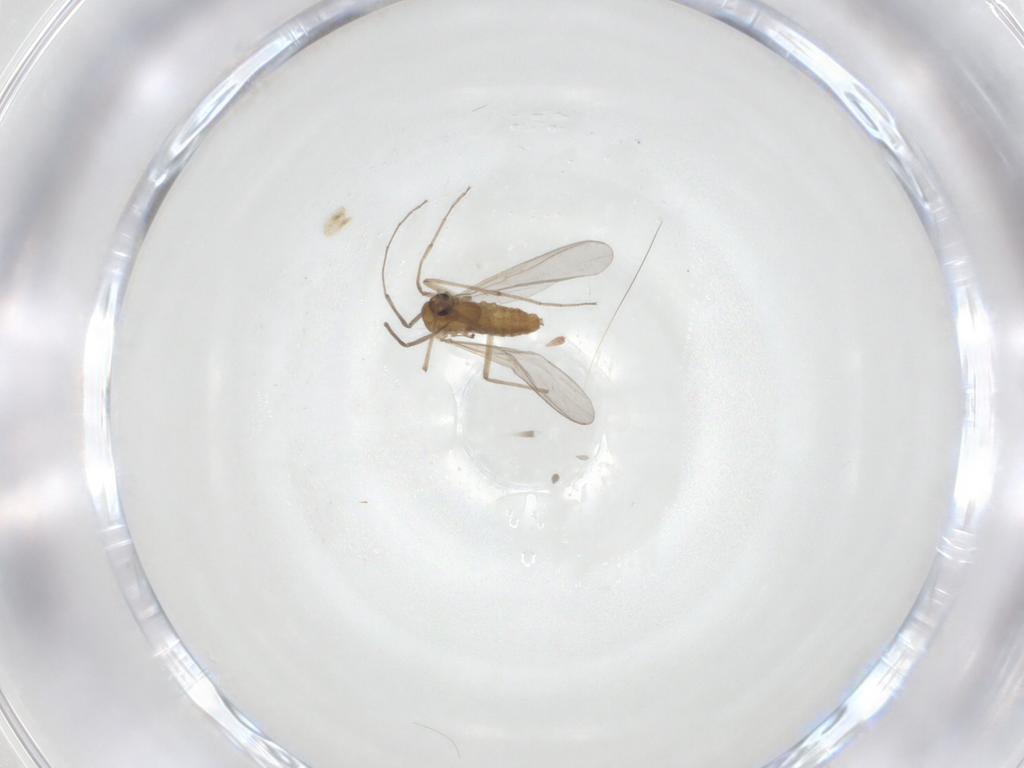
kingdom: Animalia
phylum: Arthropoda
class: Insecta
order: Diptera
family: Chironomidae
